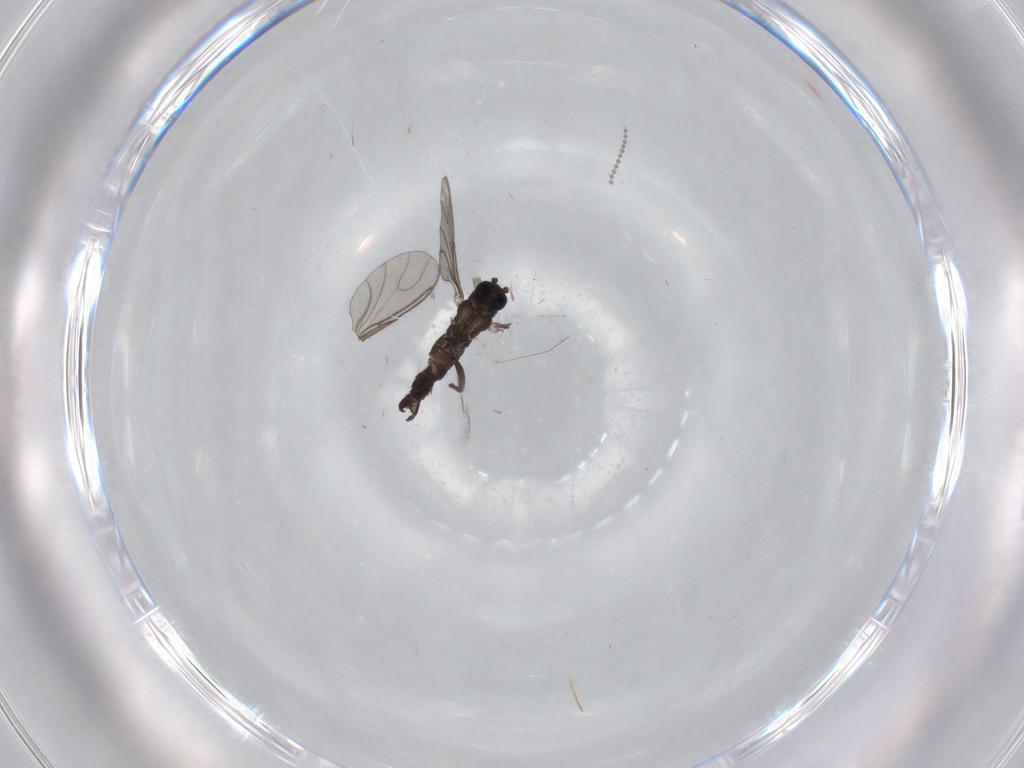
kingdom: Animalia
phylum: Arthropoda
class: Insecta
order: Diptera
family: Sciaridae
